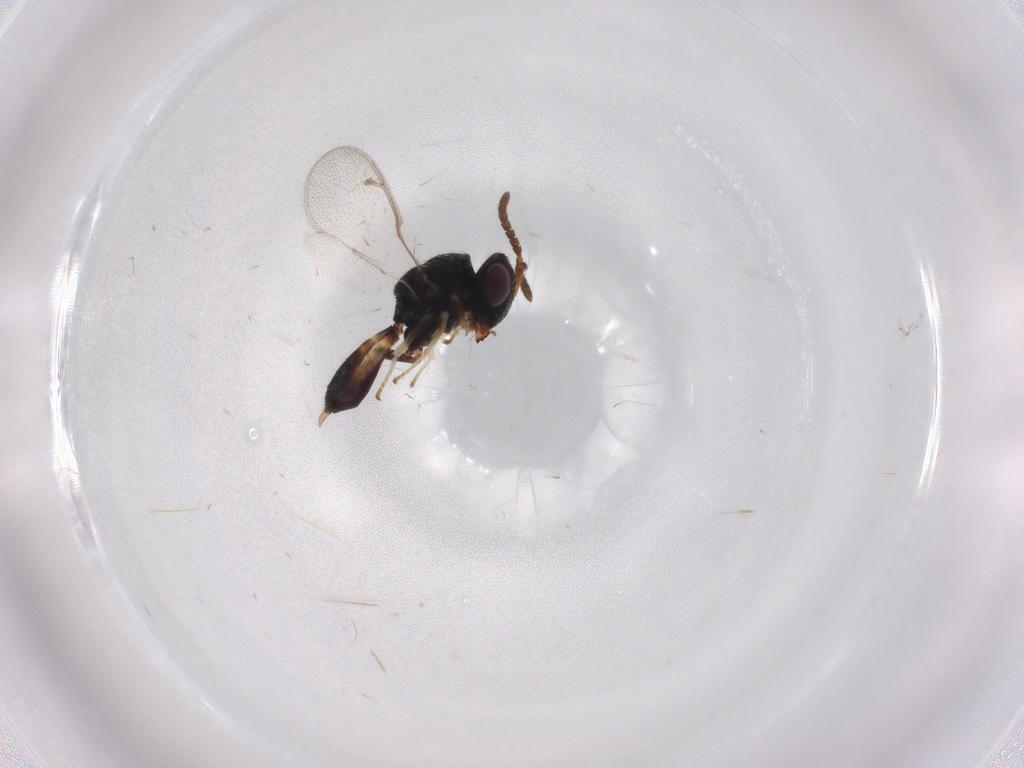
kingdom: Animalia
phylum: Arthropoda
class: Insecta
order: Hymenoptera
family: Pteromalidae
